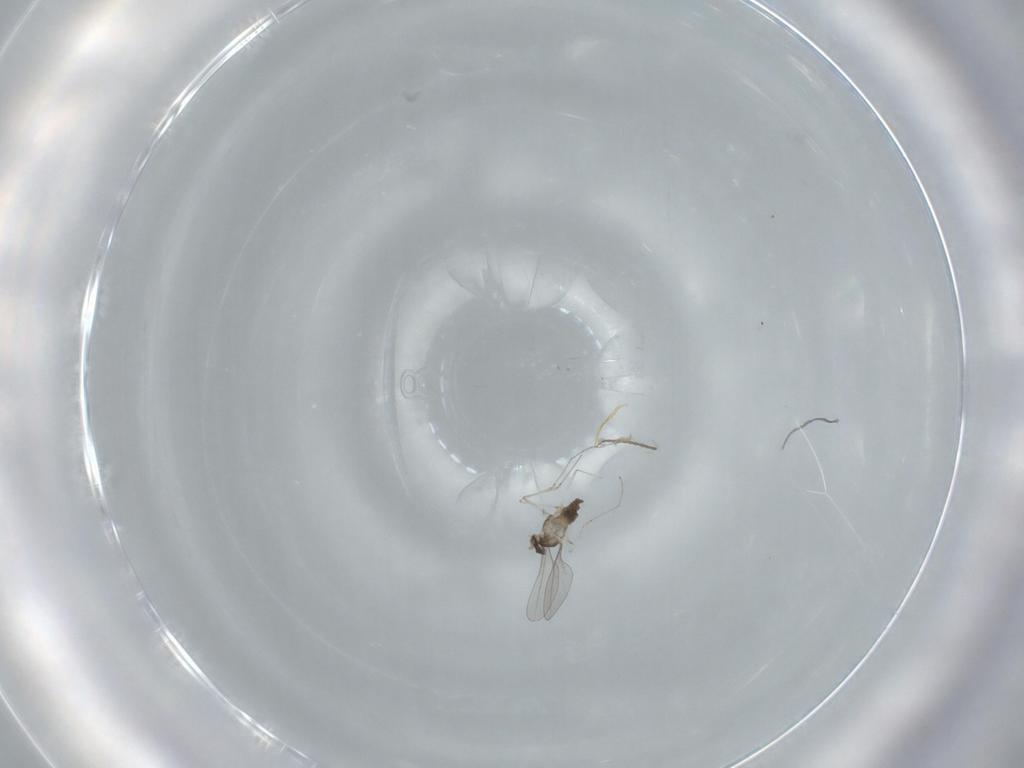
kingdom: Animalia
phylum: Arthropoda
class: Insecta
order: Diptera
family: Cecidomyiidae
